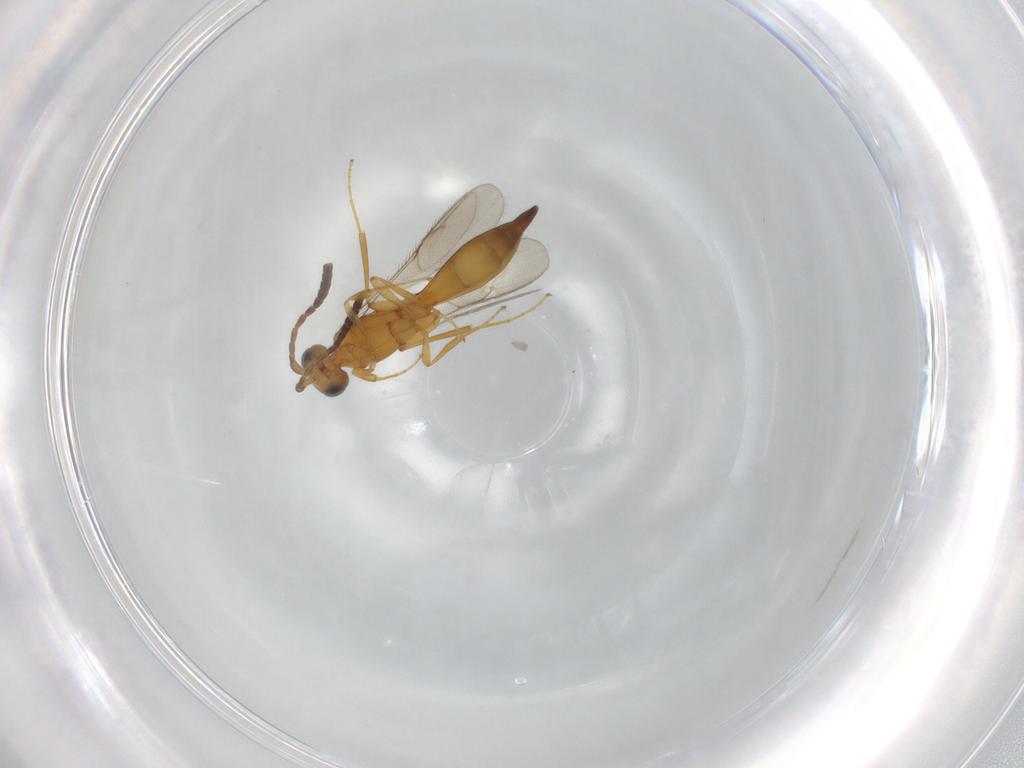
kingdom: Animalia
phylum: Arthropoda
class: Insecta
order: Hymenoptera
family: Scelionidae
